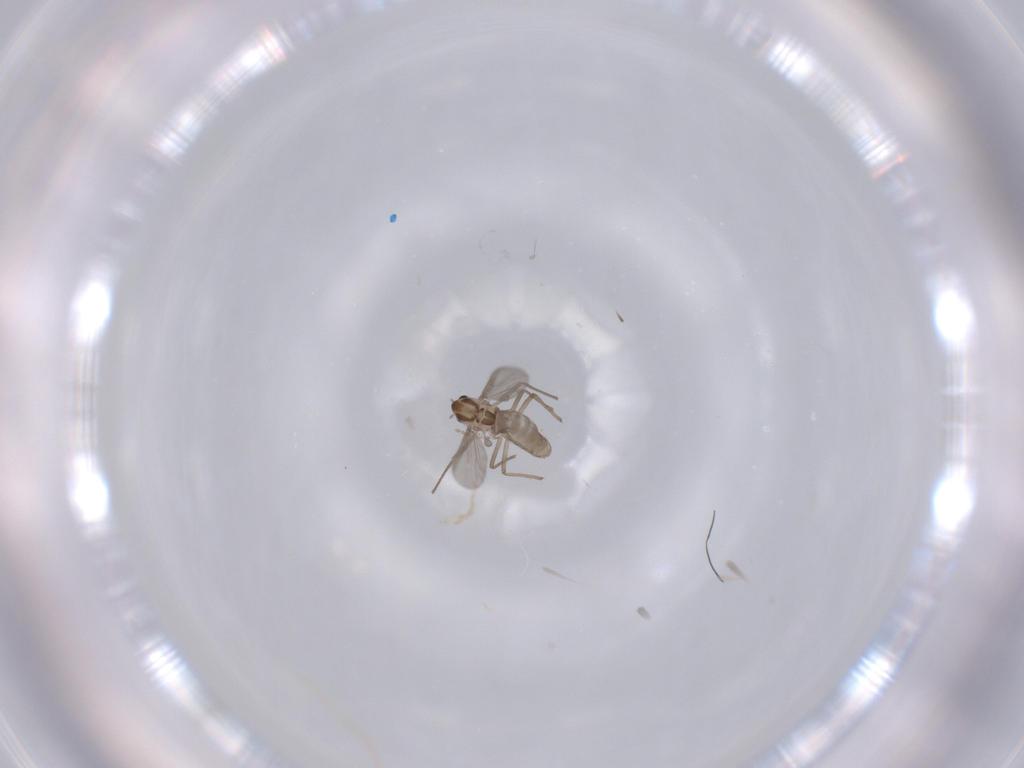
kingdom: Animalia
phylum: Arthropoda
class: Insecta
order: Diptera
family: Chironomidae
